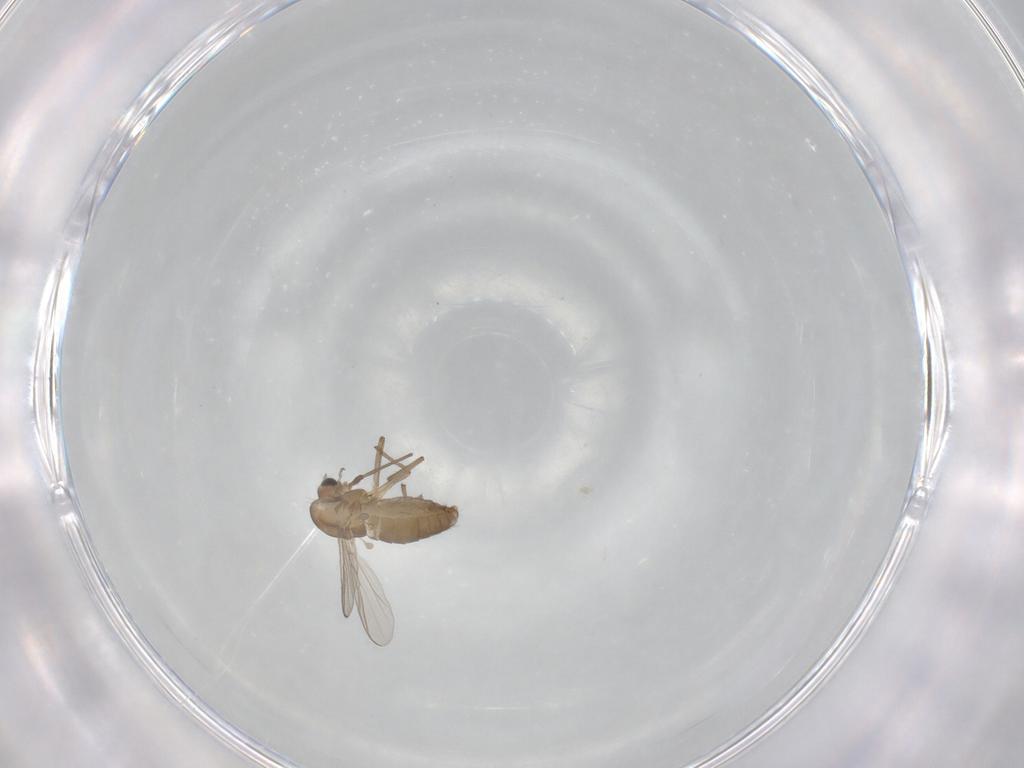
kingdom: Animalia
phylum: Arthropoda
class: Insecta
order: Diptera
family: Chironomidae
